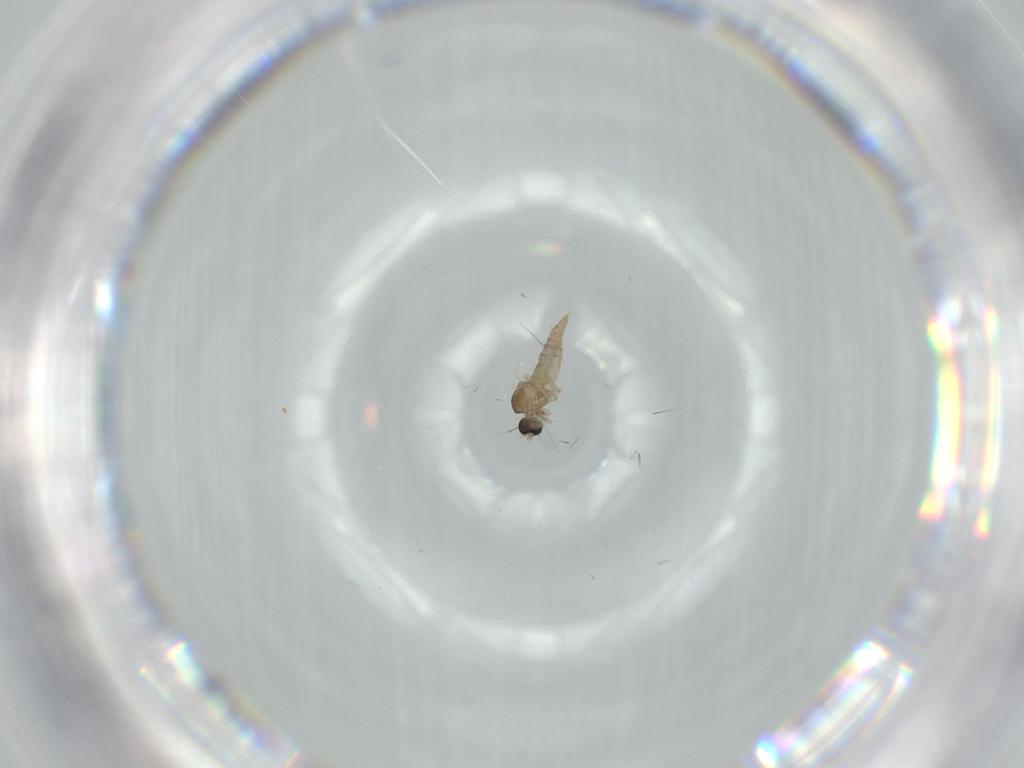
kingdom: Animalia
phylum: Arthropoda
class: Insecta
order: Diptera
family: Cecidomyiidae
